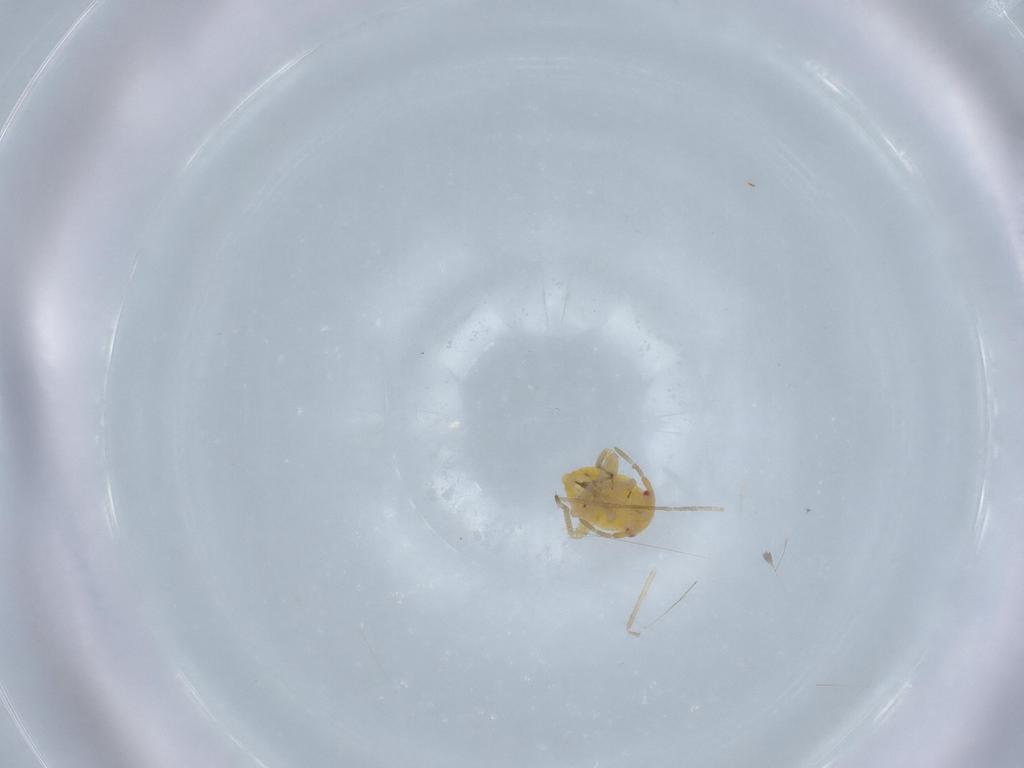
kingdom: Animalia
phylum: Arthropoda
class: Insecta
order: Hemiptera
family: Miridae
